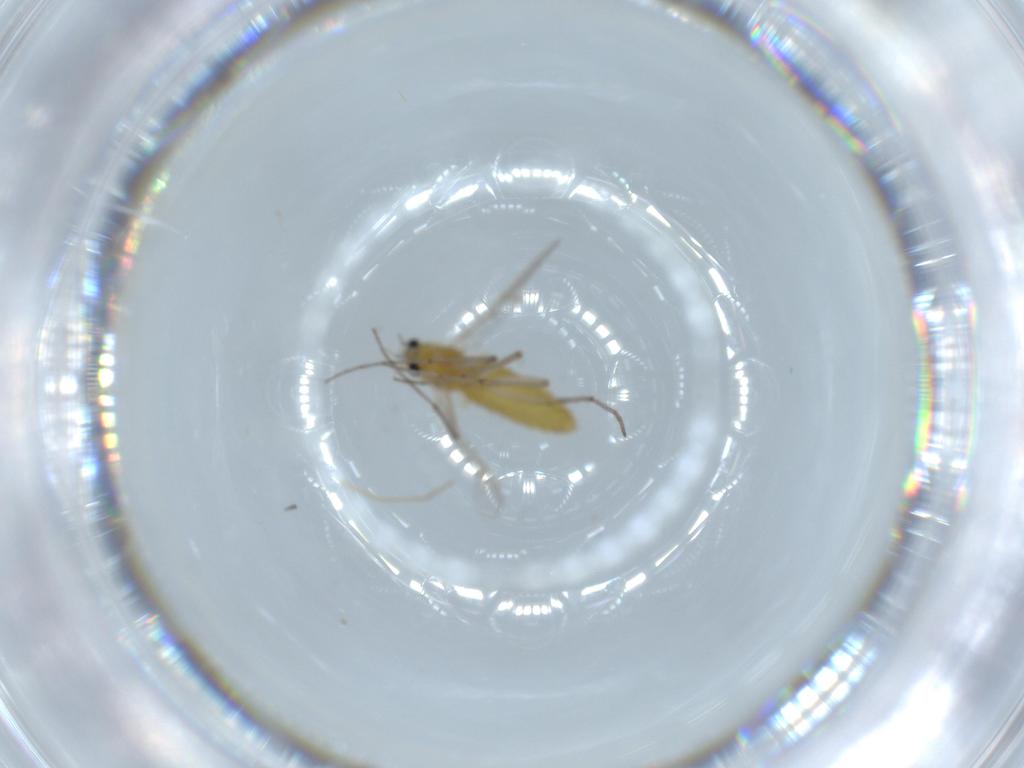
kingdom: Animalia
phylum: Arthropoda
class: Insecta
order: Diptera
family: Chironomidae
